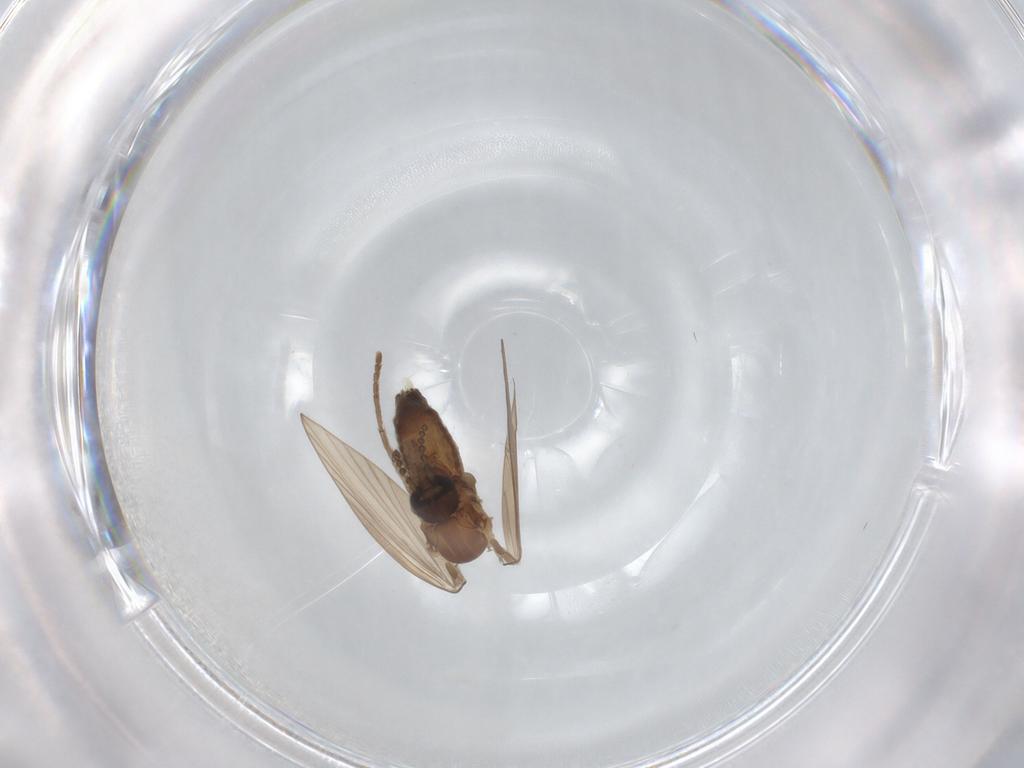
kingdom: Animalia
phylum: Arthropoda
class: Insecta
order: Diptera
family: Psychodidae
